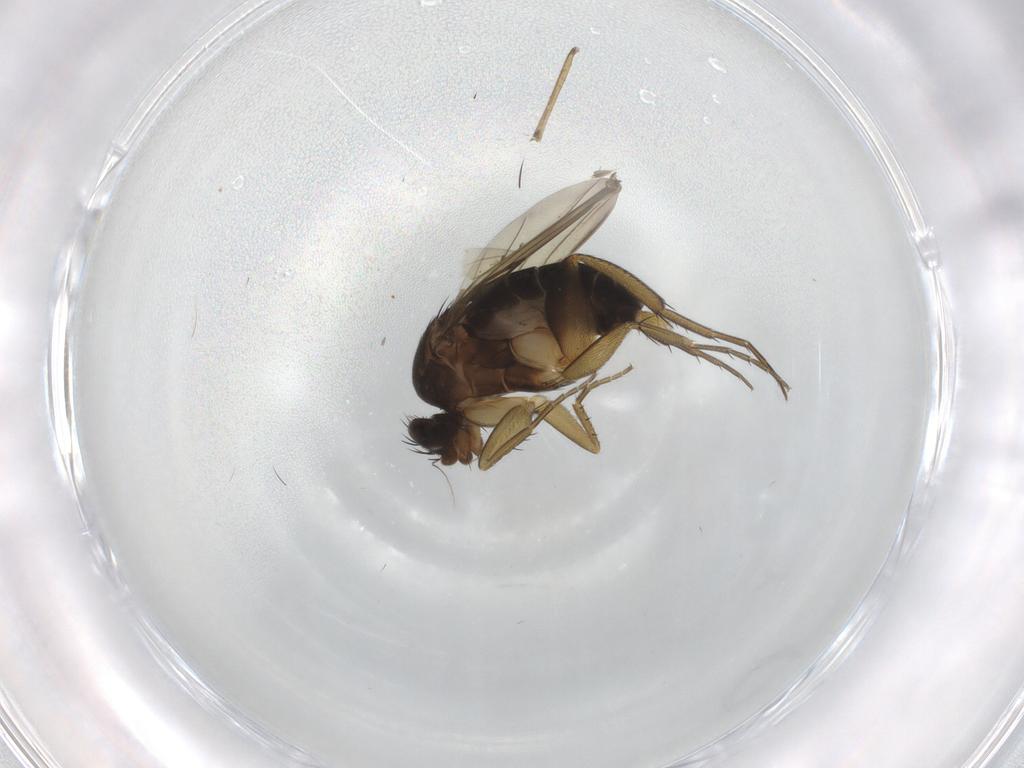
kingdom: Animalia
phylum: Arthropoda
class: Insecta
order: Diptera
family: Phoridae
